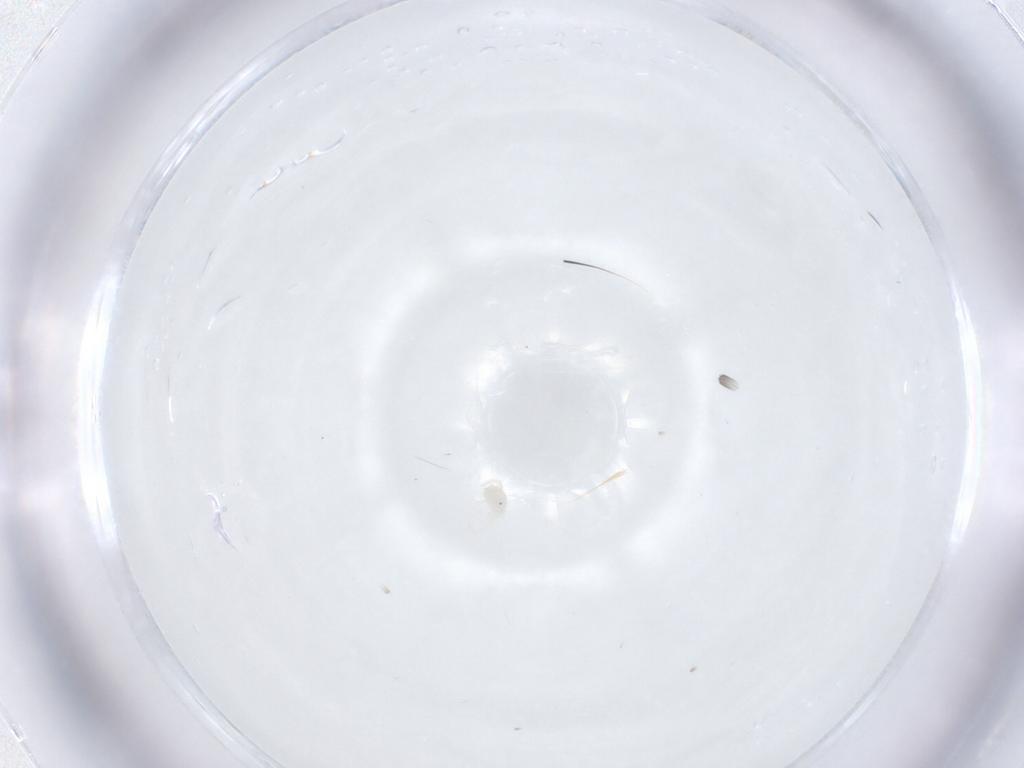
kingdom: Animalia
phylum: Arthropoda
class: Arachnida
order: Trombidiformes
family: Anystidae
